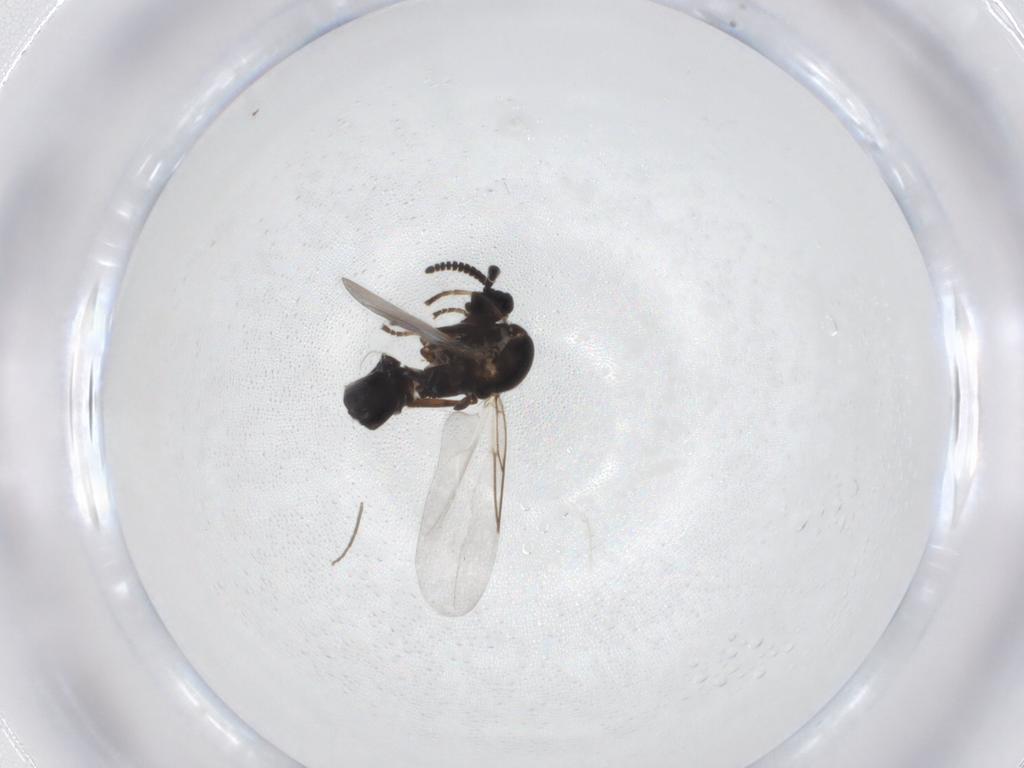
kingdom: Animalia
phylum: Arthropoda
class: Insecta
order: Diptera
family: Scatopsidae
